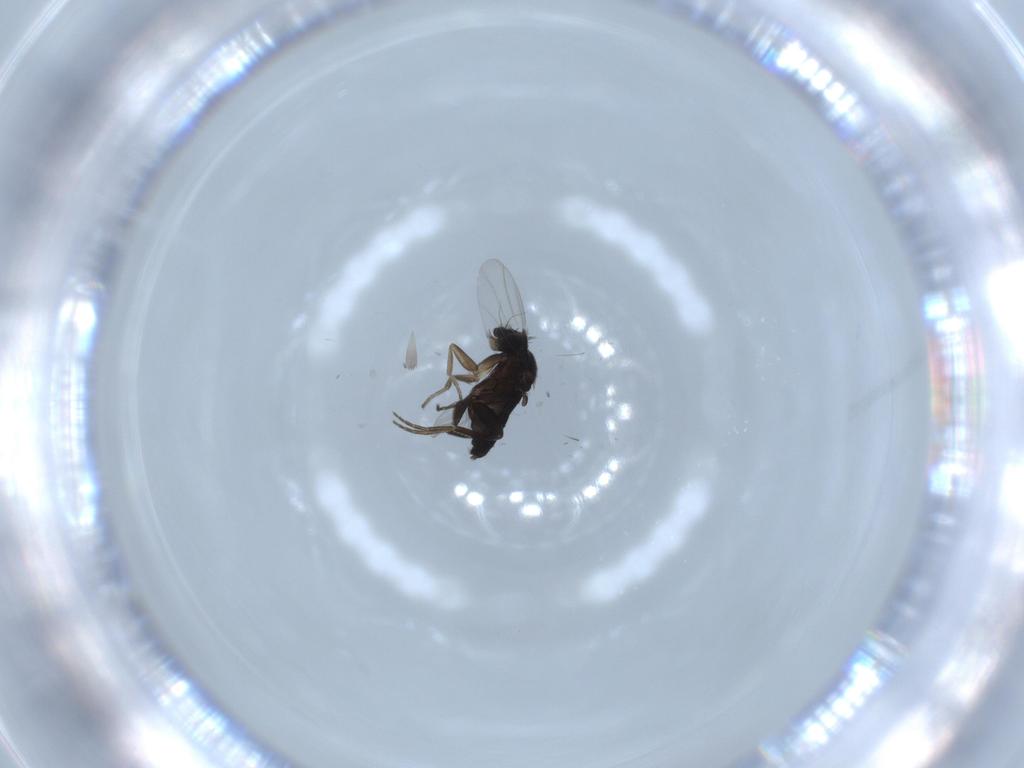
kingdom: Animalia
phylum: Arthropoda
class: Insecta
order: Diptera
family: Phoridae
